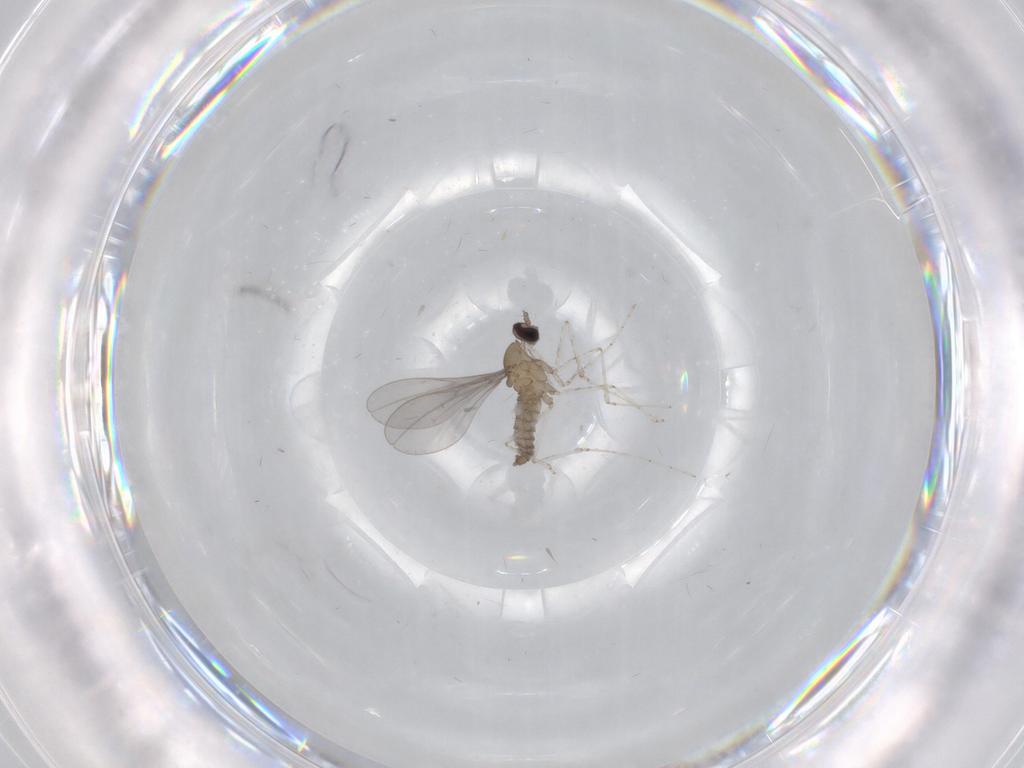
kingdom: Animalia
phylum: Arthropoda
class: Insecta
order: Diptera
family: Cecidomyiidae
